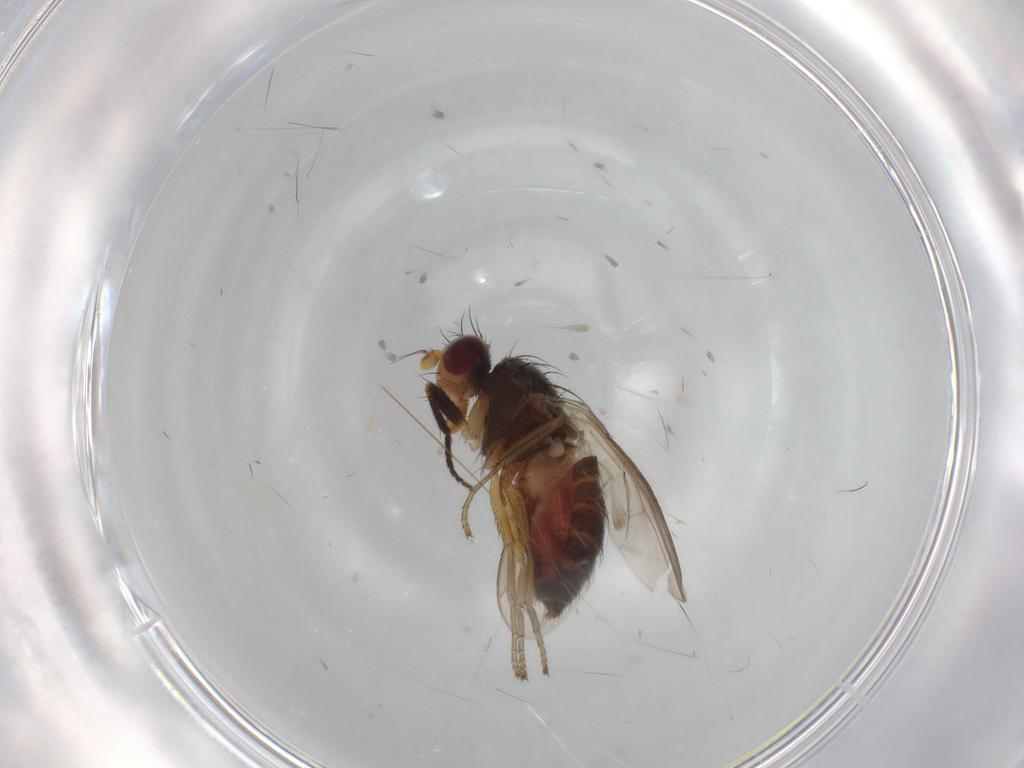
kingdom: Animalia
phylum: Arthropoda
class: Insecta
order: Diptera
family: Heleomyzidae
